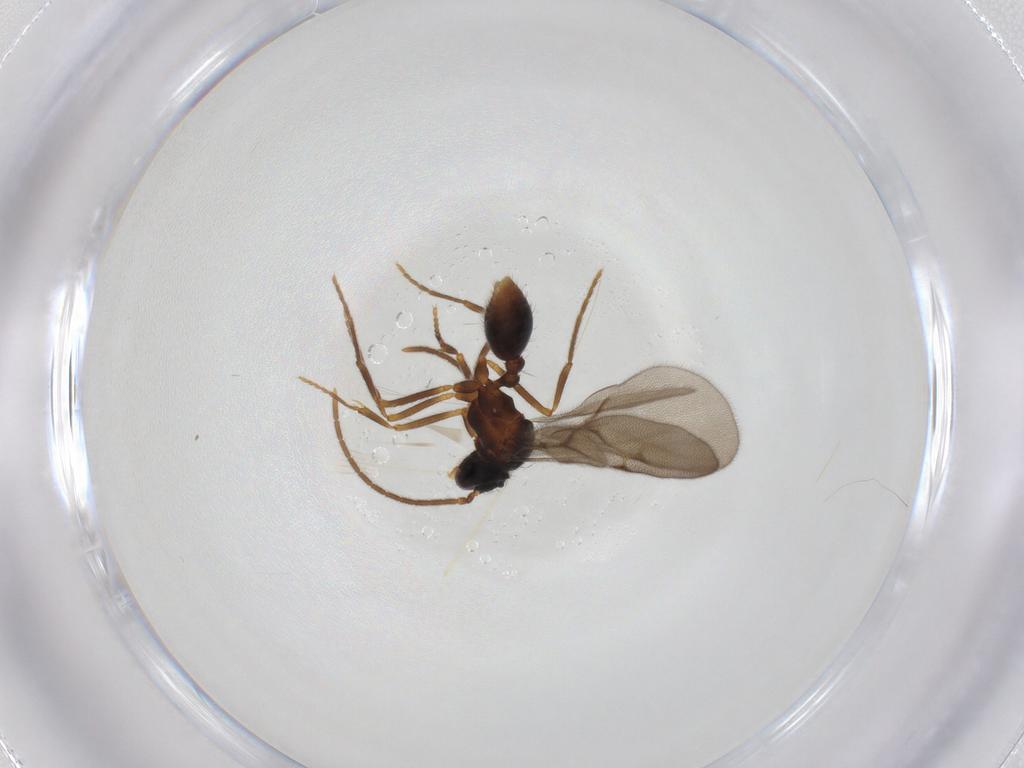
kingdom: Animalia
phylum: Arthropoda
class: Insecta
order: Hymenoptera
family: Formicidae
